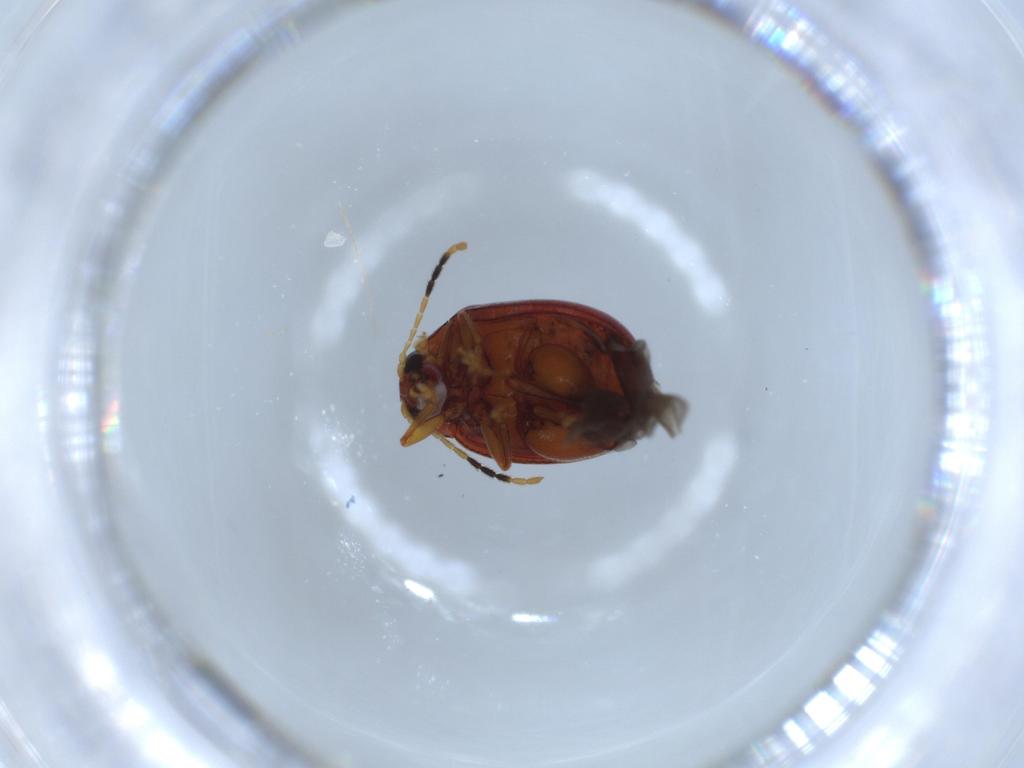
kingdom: Animalia
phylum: Arthropoda
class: Insecta
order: Coleoptera
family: Chrysomelidae
